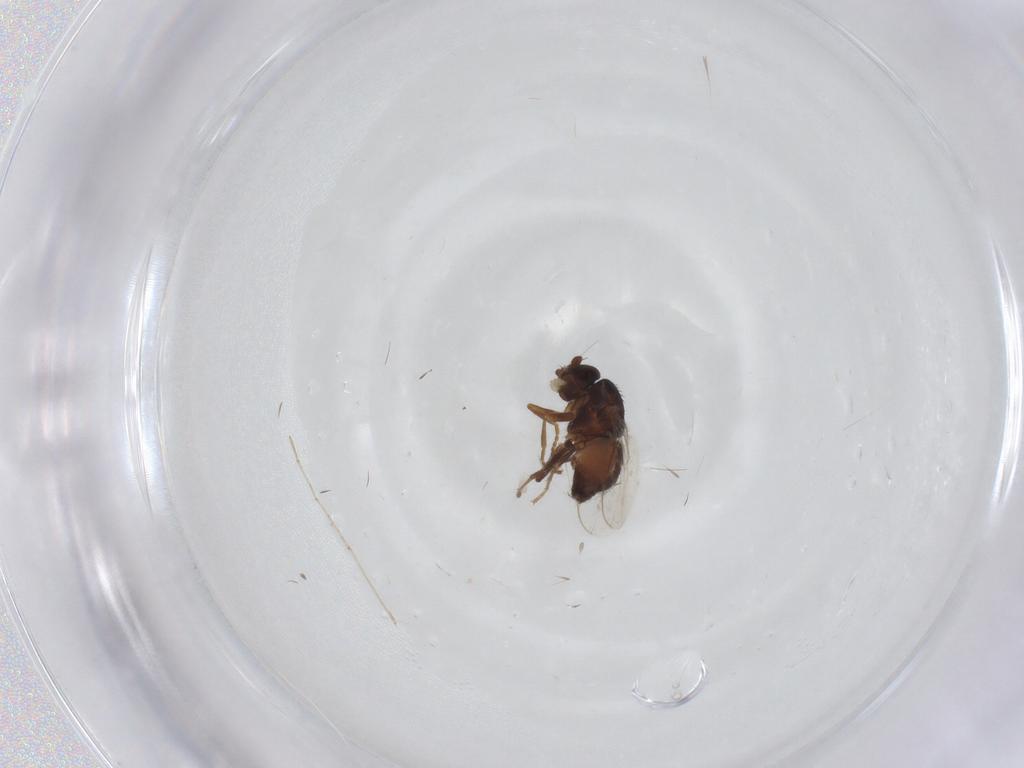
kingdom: Animalia
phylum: Arthropoda
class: Insecta
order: Diptera
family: Sphaeroceridae
